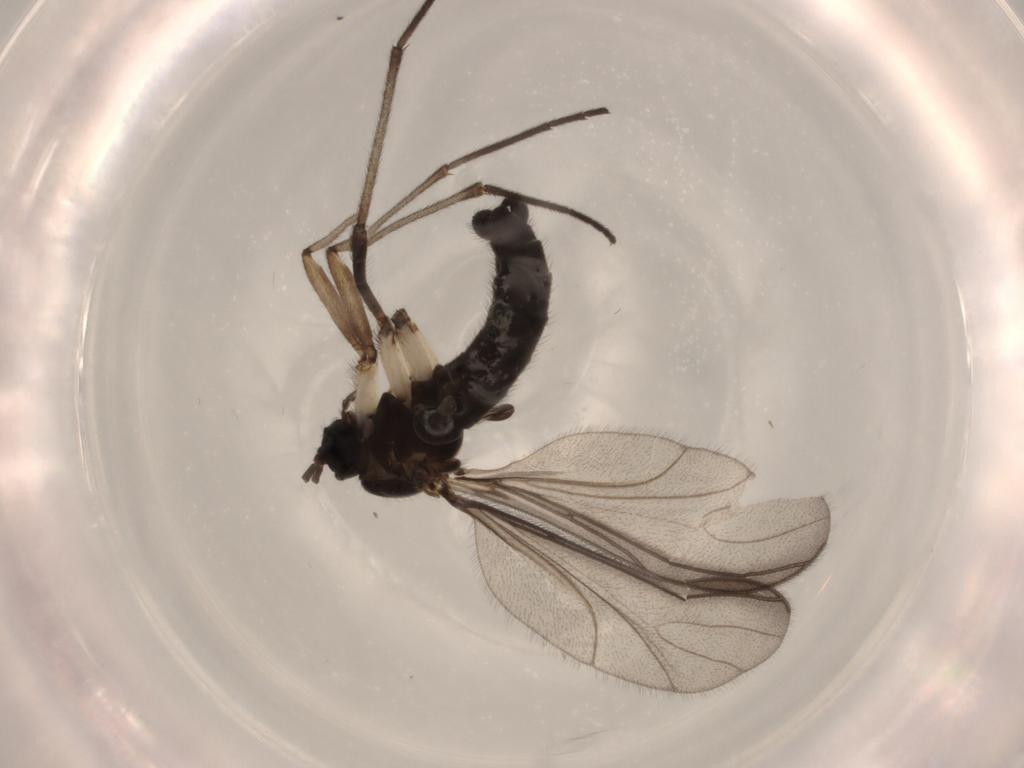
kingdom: Animalia
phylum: Arthropoda
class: Insecta
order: Diptera
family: Sciaridae
